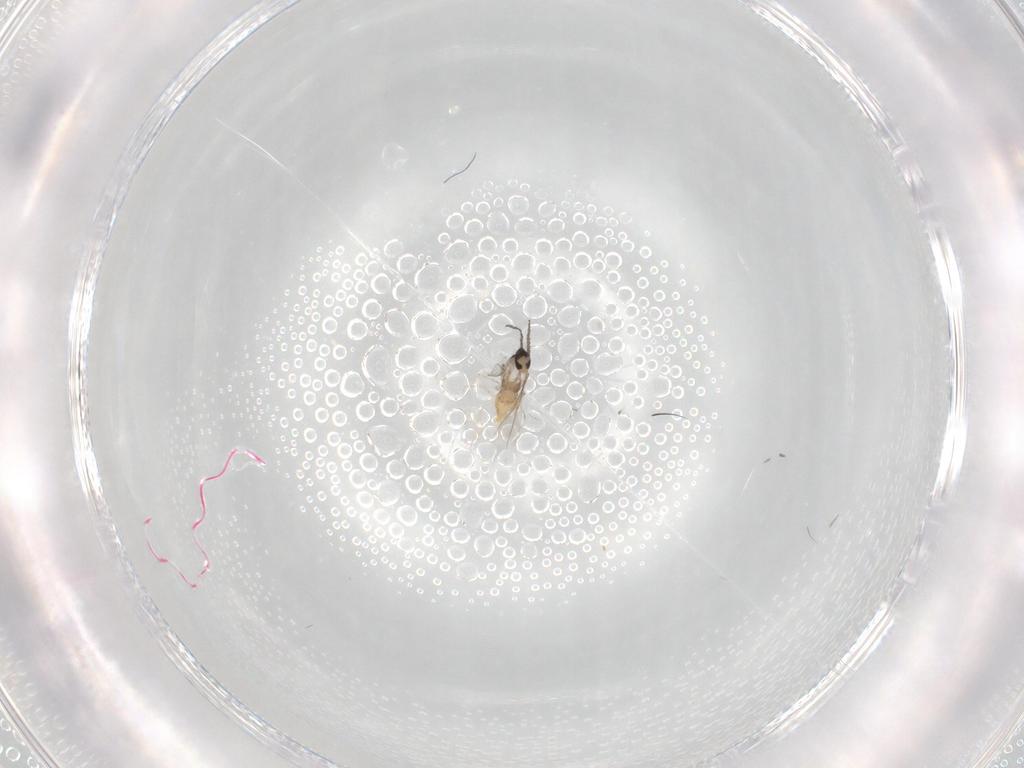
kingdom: Animalia
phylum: Arthropoda
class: Insecta
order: Diptera
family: Cecidomyiidae
